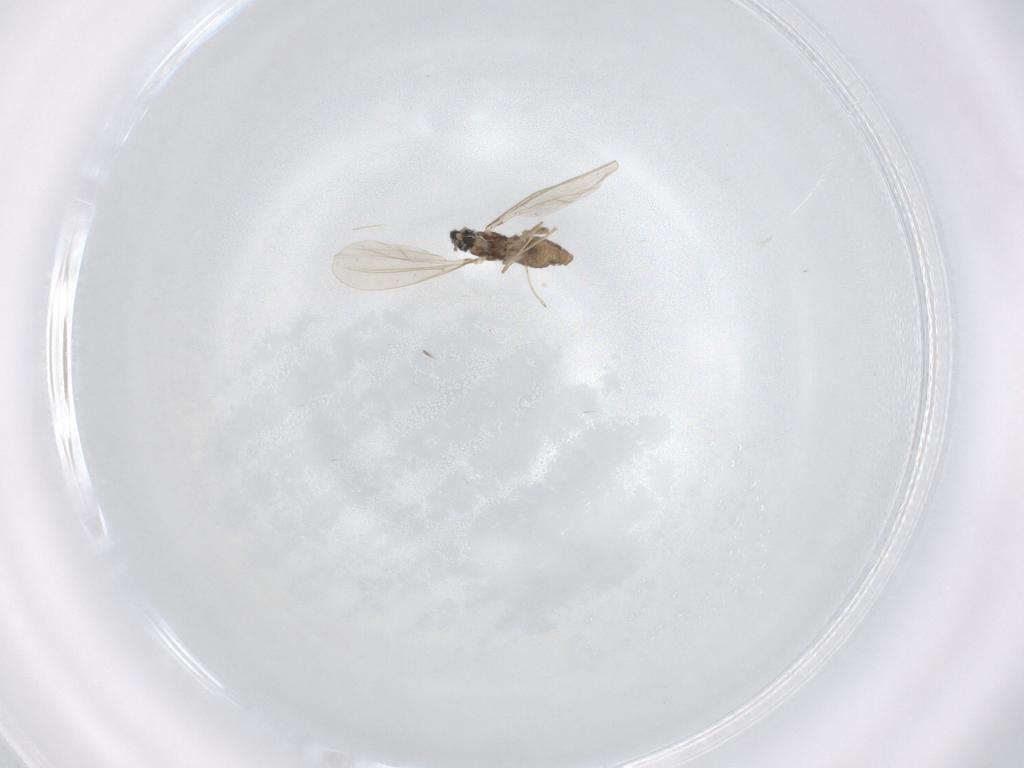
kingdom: Animalia
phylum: Arthropoda
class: Insecta
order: Diptera
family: Cecidomyiidae
